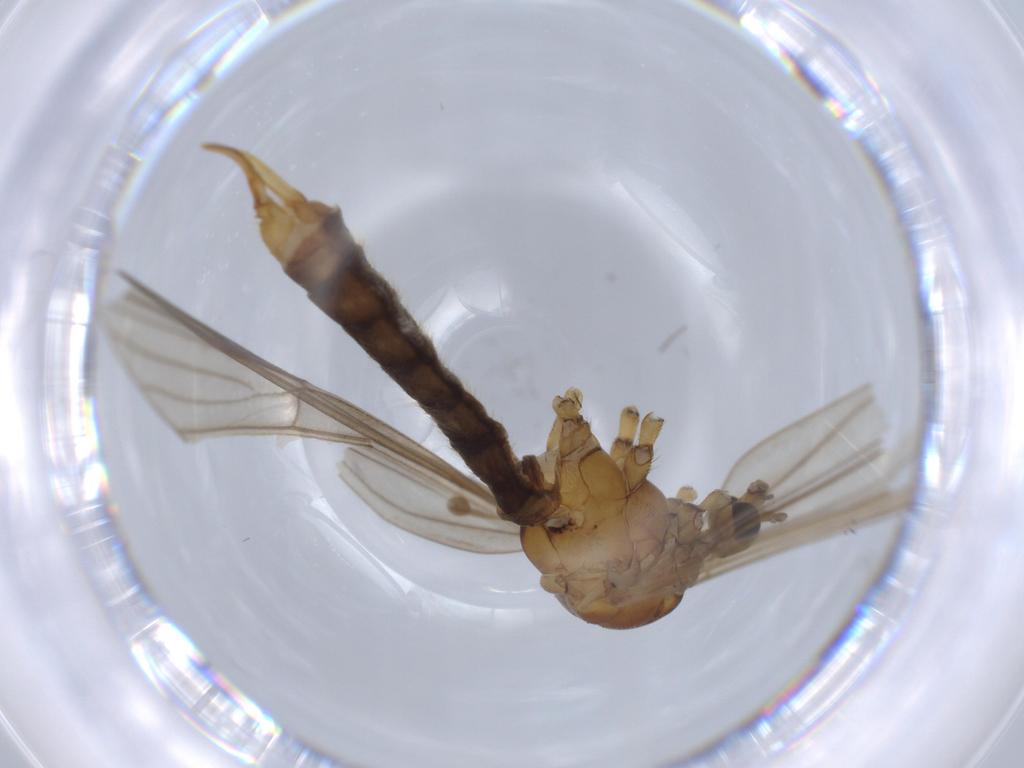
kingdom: Animalia
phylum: Arthropoda
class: Insecta
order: Diptera
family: Limoniidae
